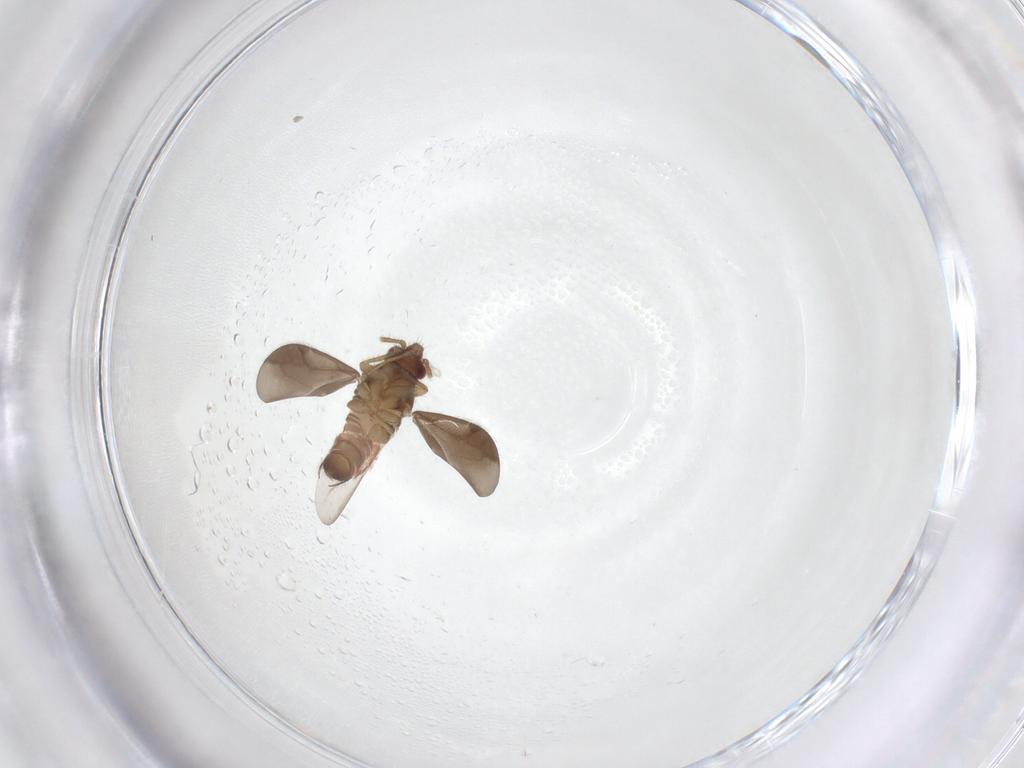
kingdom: Animalia
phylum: Arthropoda
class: Insecta
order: Hemiptera
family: Ceratocombidae
